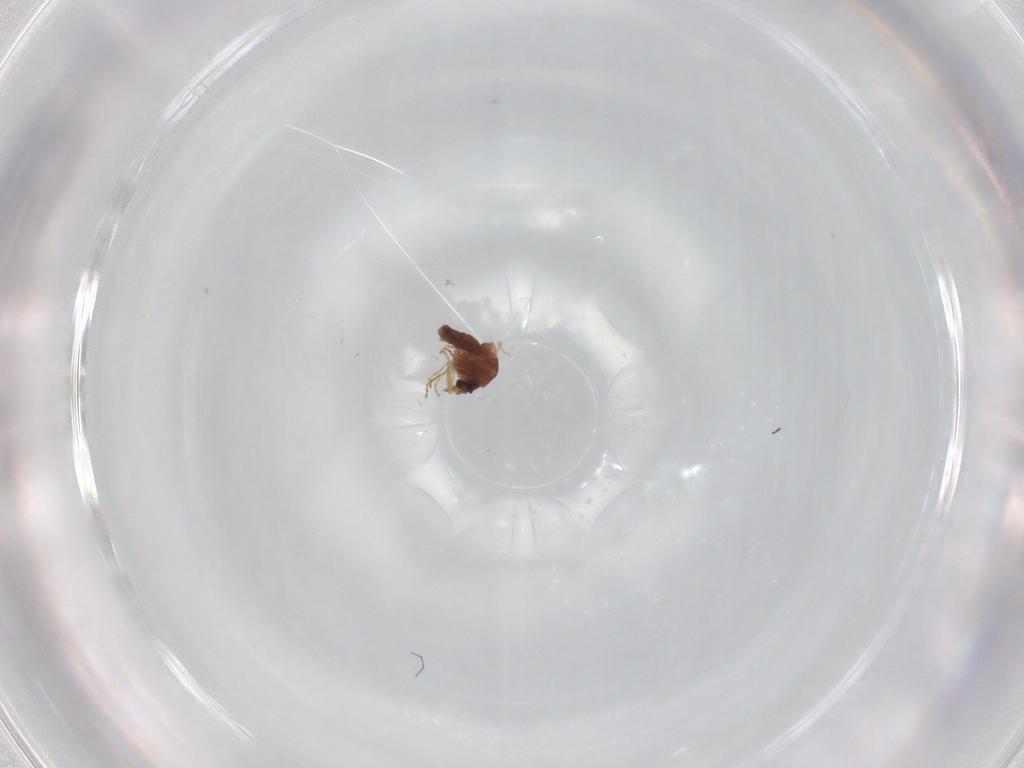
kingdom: Animalia
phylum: Arthropoda
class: Insecta
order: Diptera
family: Ceratopogonidae
